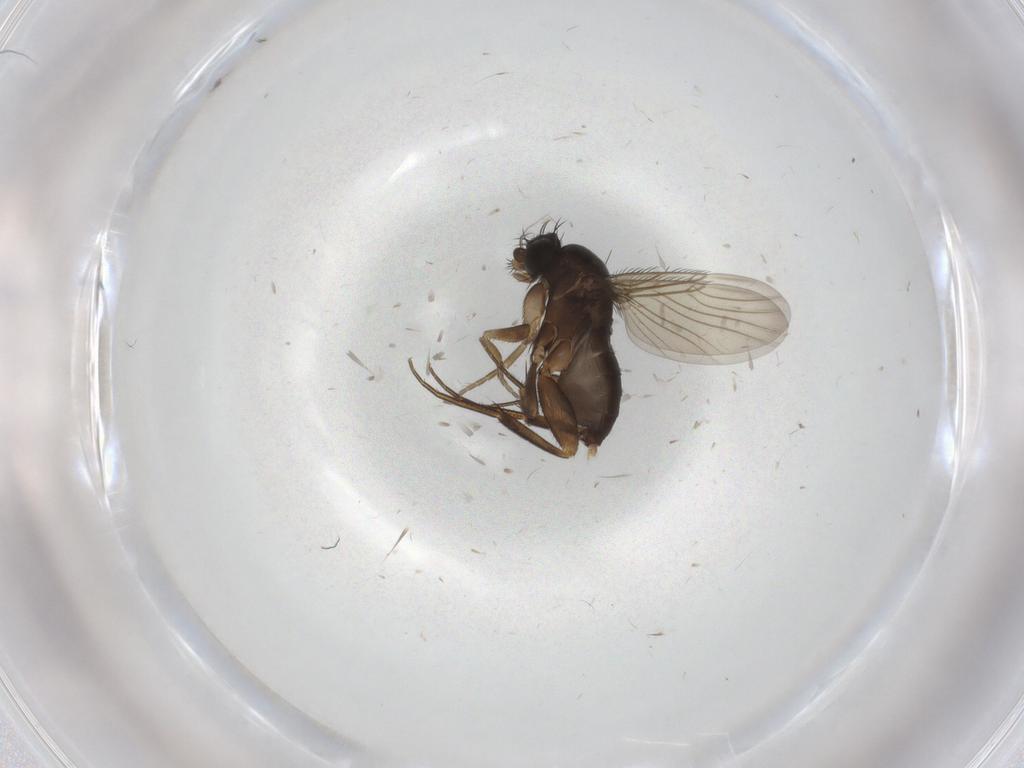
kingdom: Animalia
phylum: Arthropoda
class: Insecta
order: Diptera
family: Phoridae
